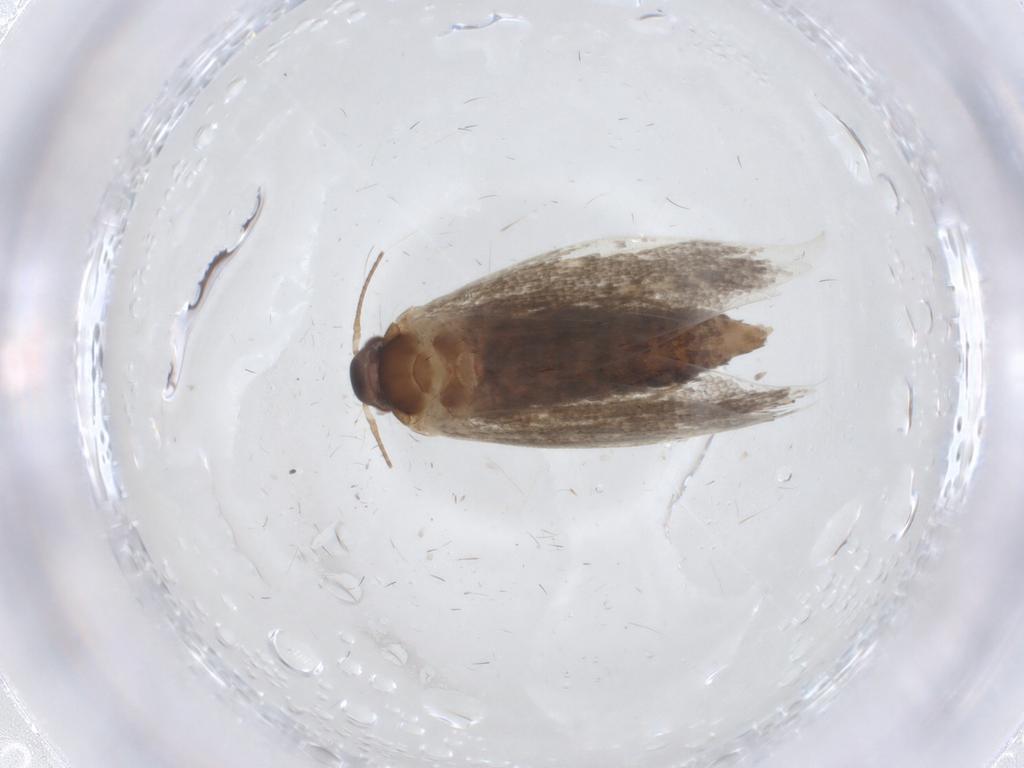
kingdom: Animalia
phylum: Arthropoda
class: Insecta
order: Lepidoptera
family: Oecophoridae
